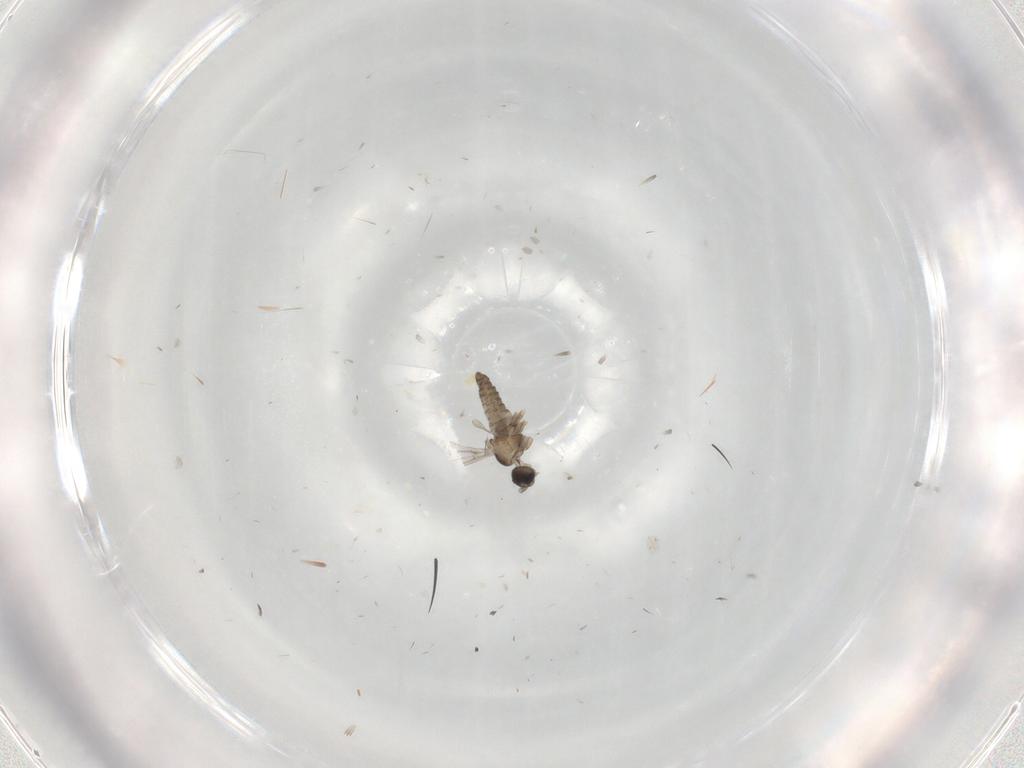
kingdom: Animalia
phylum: Arthropoda
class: Insecta
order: Diptera
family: Cecidomyiidae
